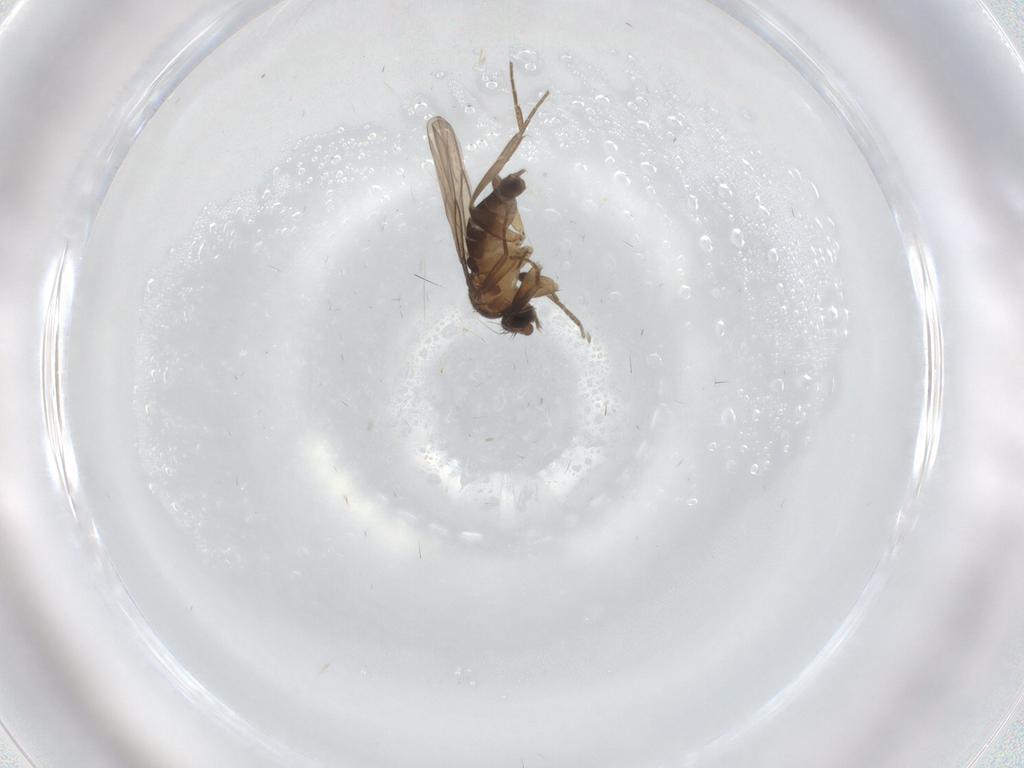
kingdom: Animalia
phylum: Arthropoda
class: Insecta
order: Diptera
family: Phoridae
